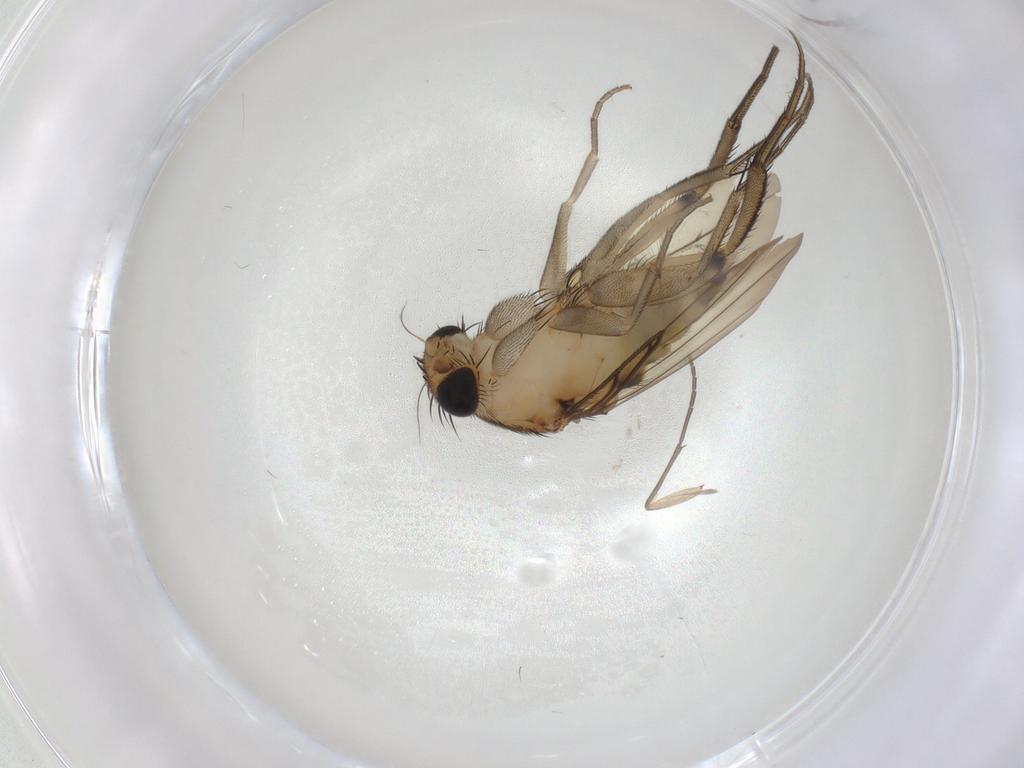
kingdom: Animalia
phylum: Arthropoda
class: Insecta
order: Diptera
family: Phoridae
